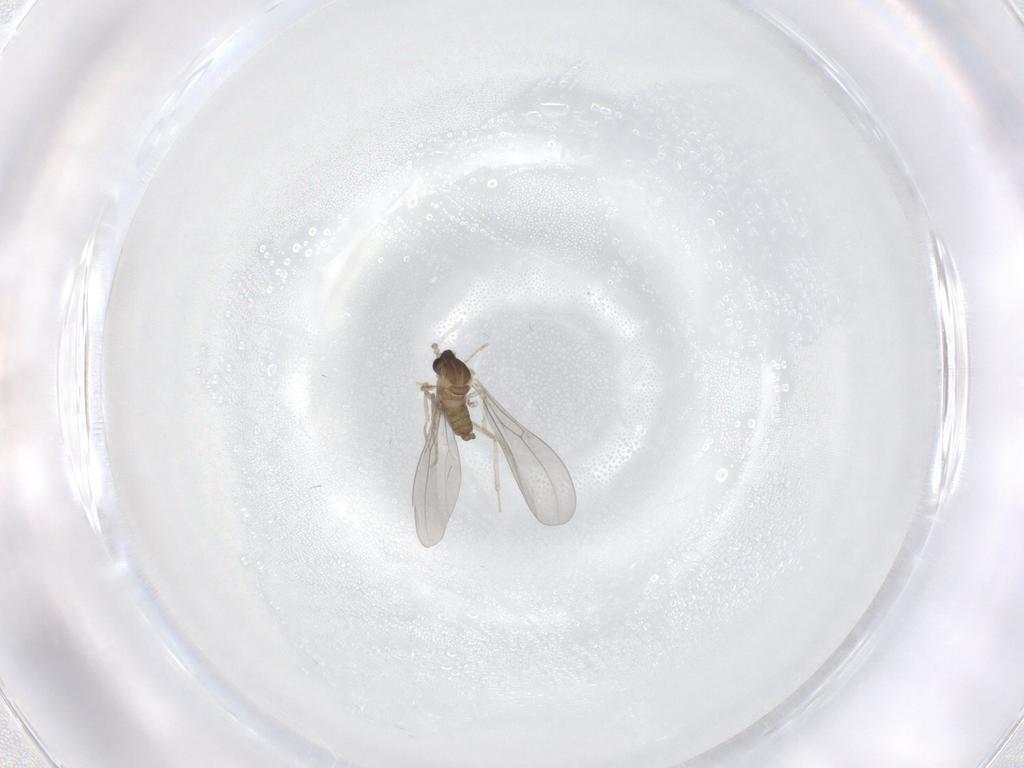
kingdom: Animalia
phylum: Arthropoda
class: Insecta
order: Diptera
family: Cecidomyiidae
